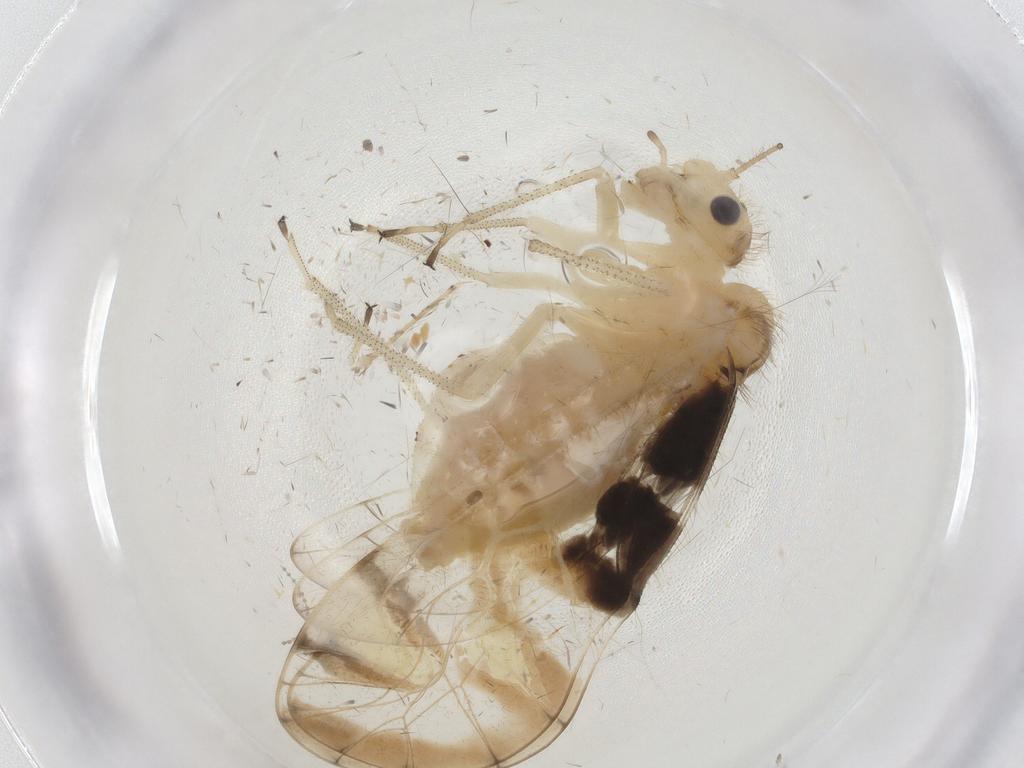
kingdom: Animalia
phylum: Arthropoda
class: Insecta
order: Psocodea
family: Amphipsocidae
